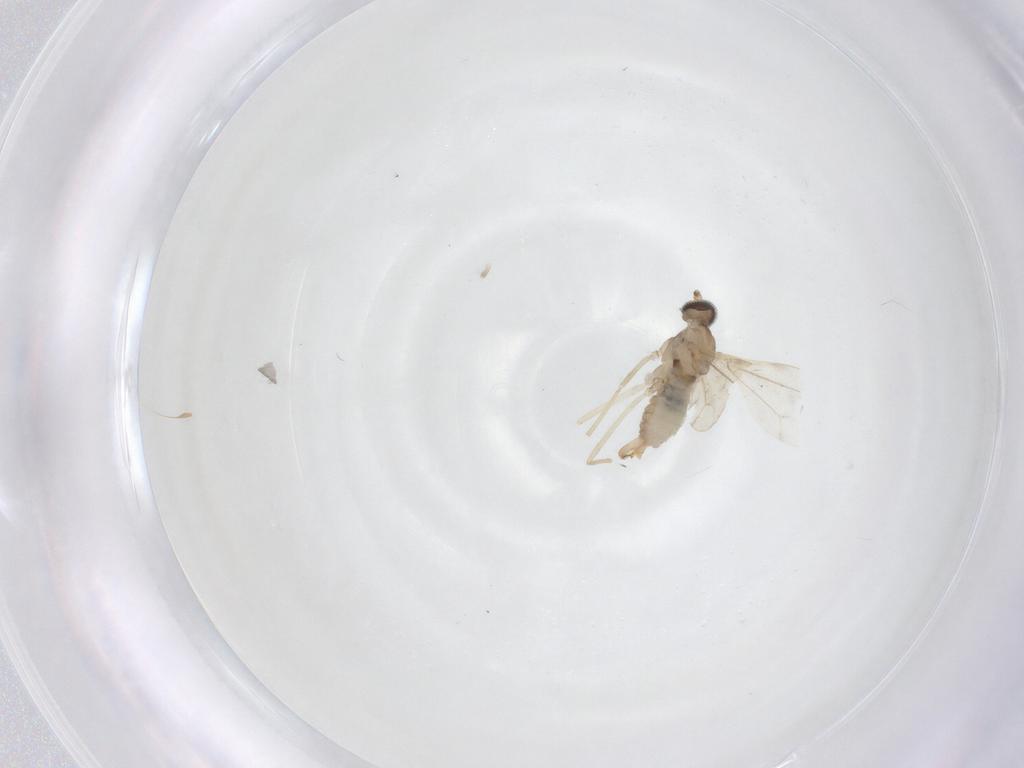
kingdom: Animalia
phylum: Arthropoda
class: Insecta
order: Diptera
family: Cecidomyiidae
